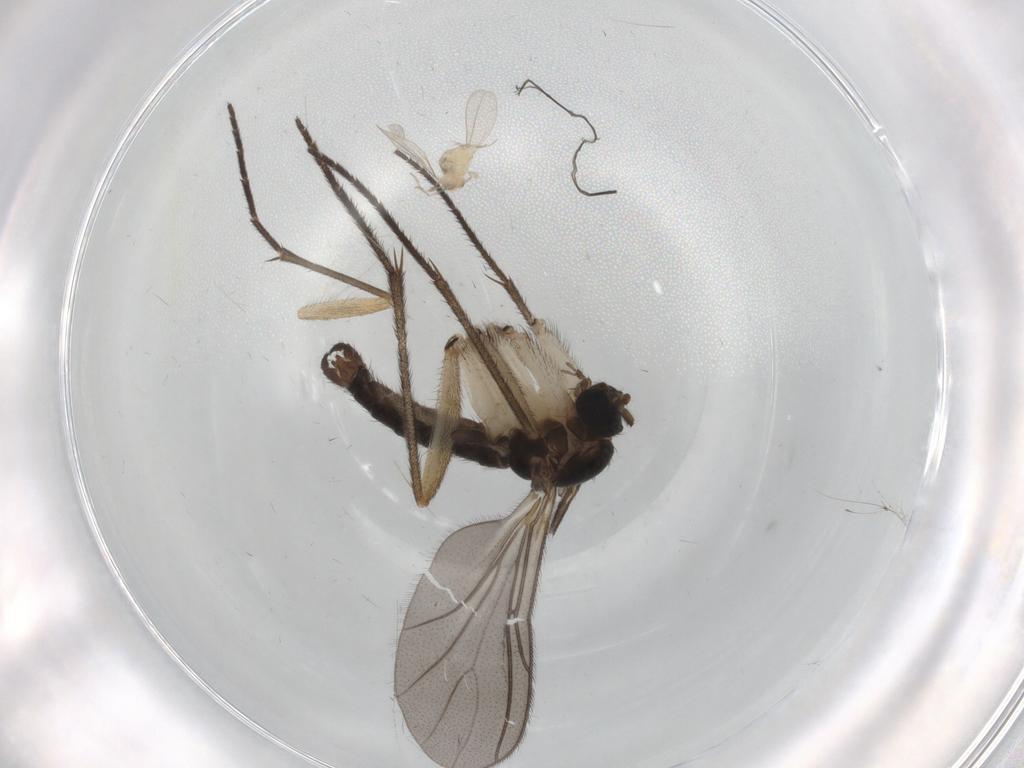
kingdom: Animalia
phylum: Arthropoda
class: Insecta
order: Diptera
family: Sciaridae
